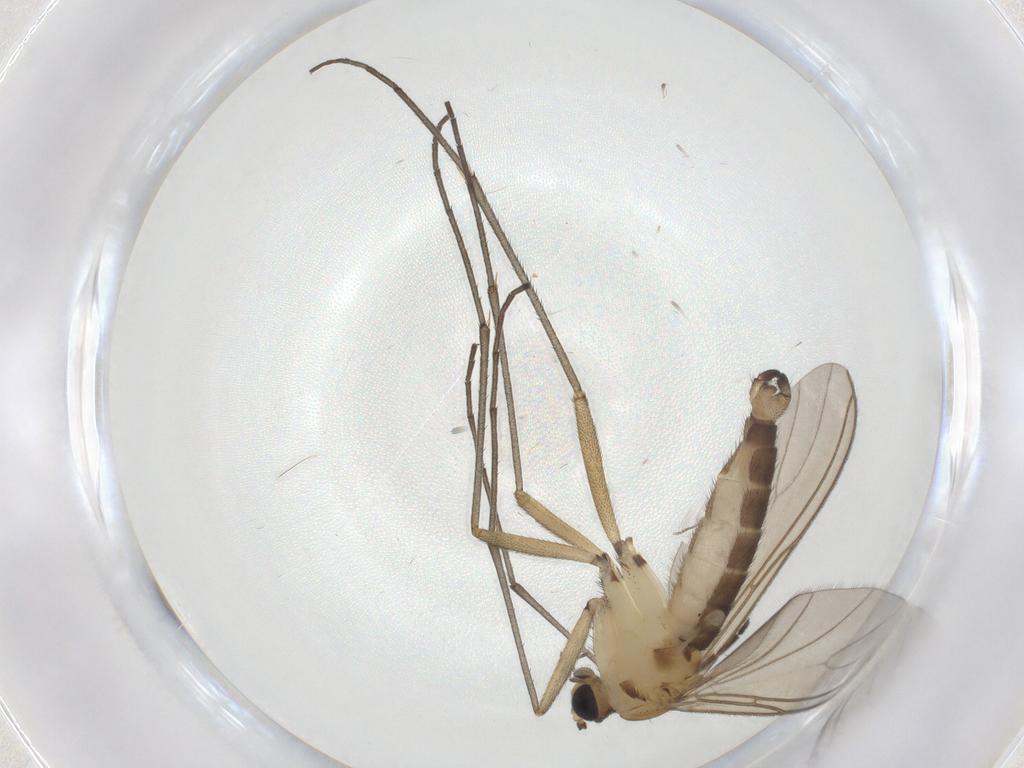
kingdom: Animalia
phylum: Arthropoda
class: Insecta
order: Diptera
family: Sciaridae
